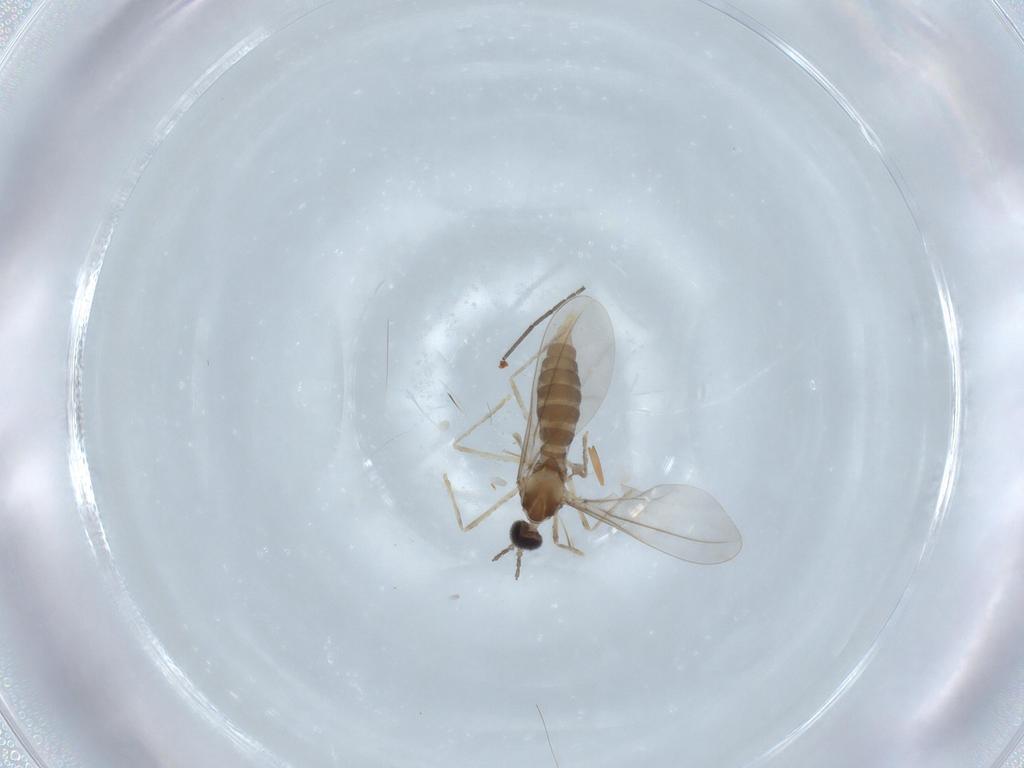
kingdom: Animalia
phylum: Arthropoda
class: Insecta
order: Diptera
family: Cecidomyiidae
